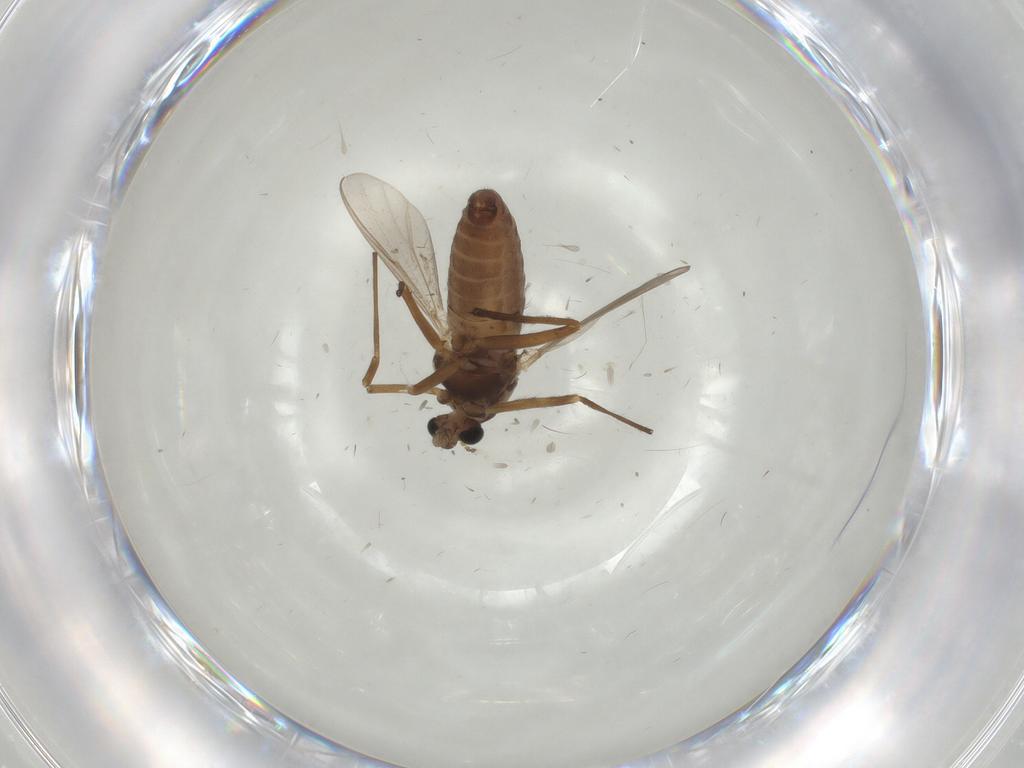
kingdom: Animalia
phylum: Arthropoda
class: Insecta
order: Diptera
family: Chironomidae
